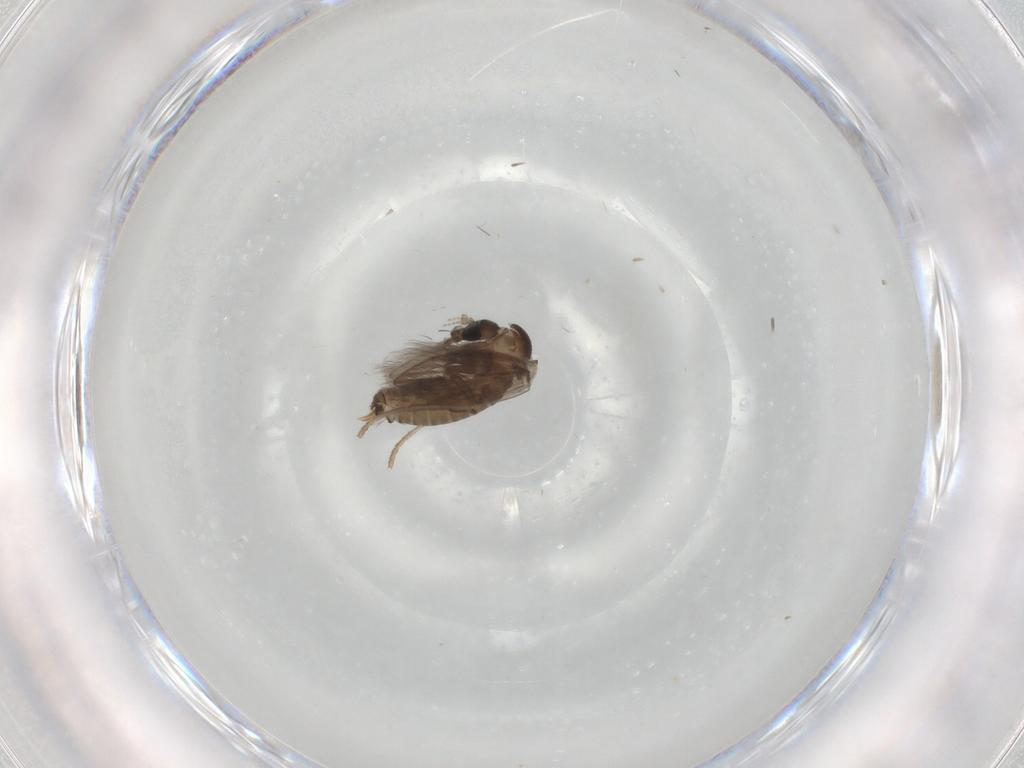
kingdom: Animalia
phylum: Arthropoda
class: Insecta
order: Diptera
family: Psychodidae
